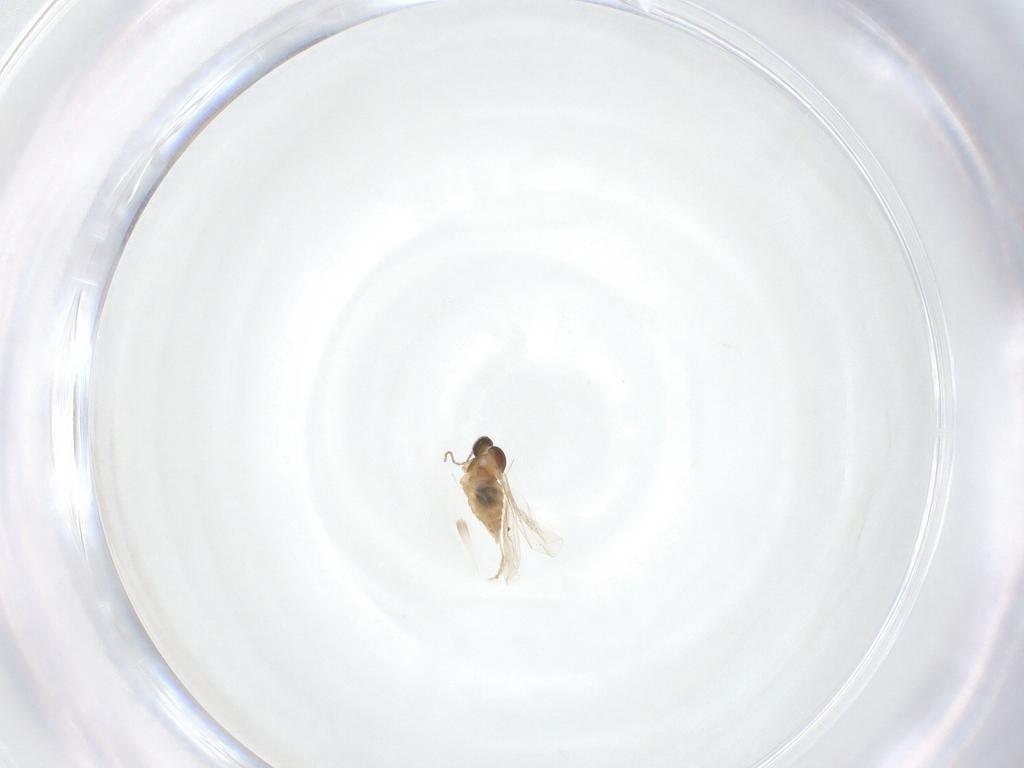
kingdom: Animalia
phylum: Arthropoda
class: Insecta
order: Diptera
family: Cecidomyiidae
